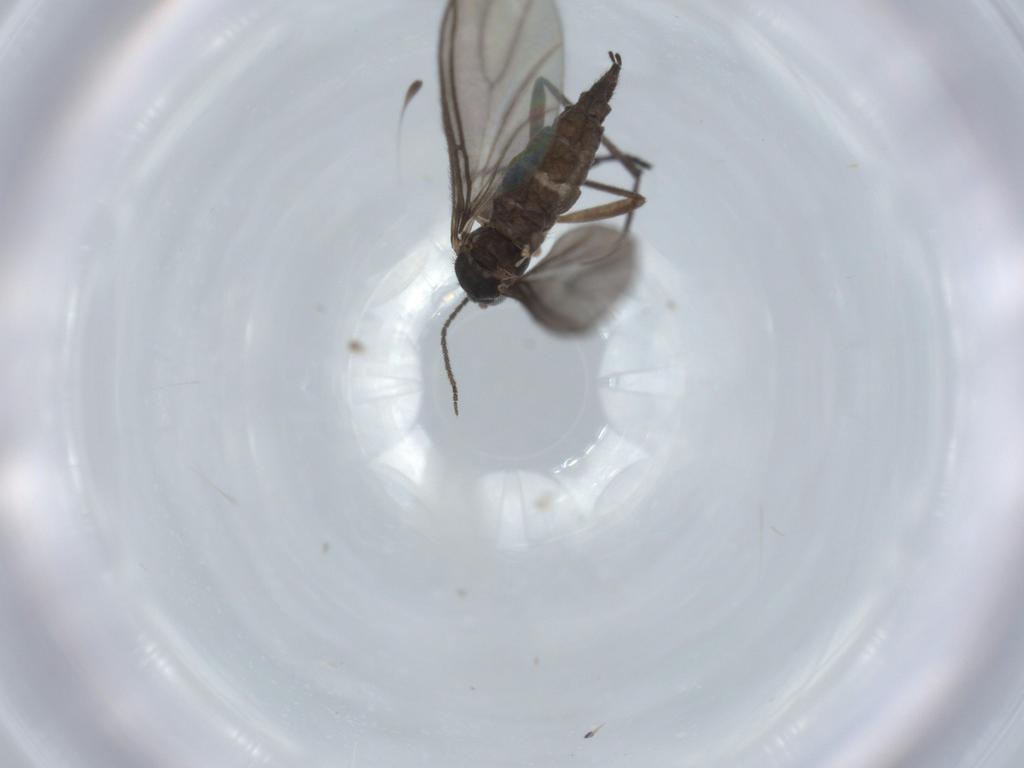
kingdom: Animalia
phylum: Arthropoda
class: Insecta
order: Diptera
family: Sciaridae
